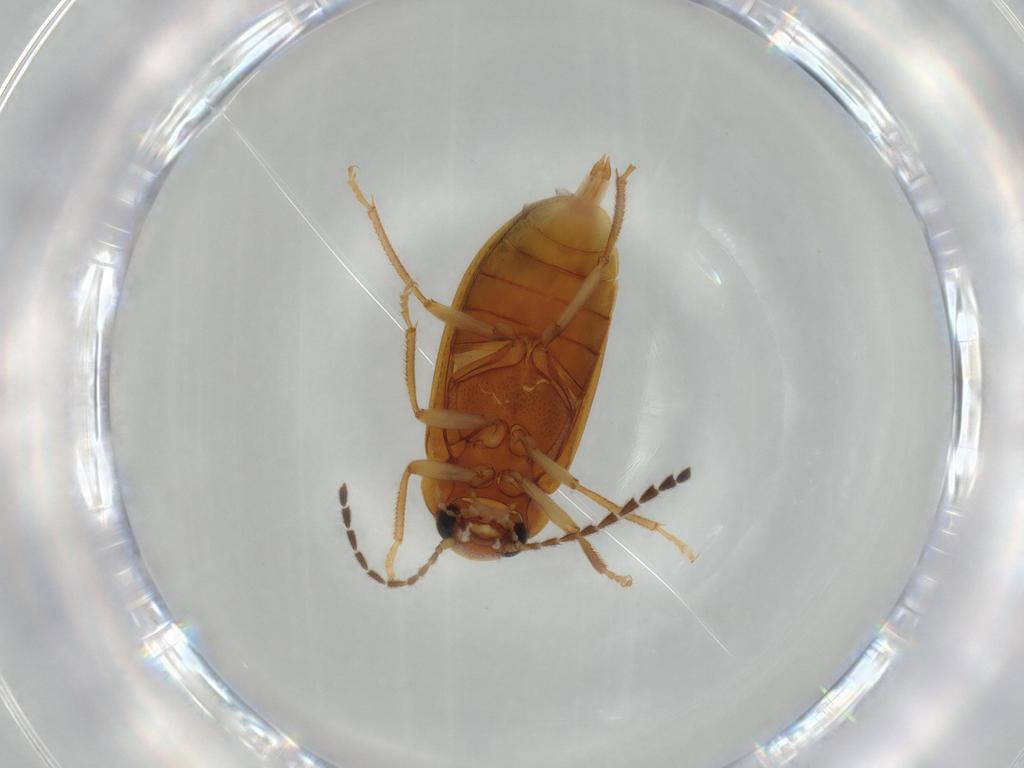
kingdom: Animalia
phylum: Arthropoda
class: Insecta
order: Coleoptera
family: Ptilodactylidae
